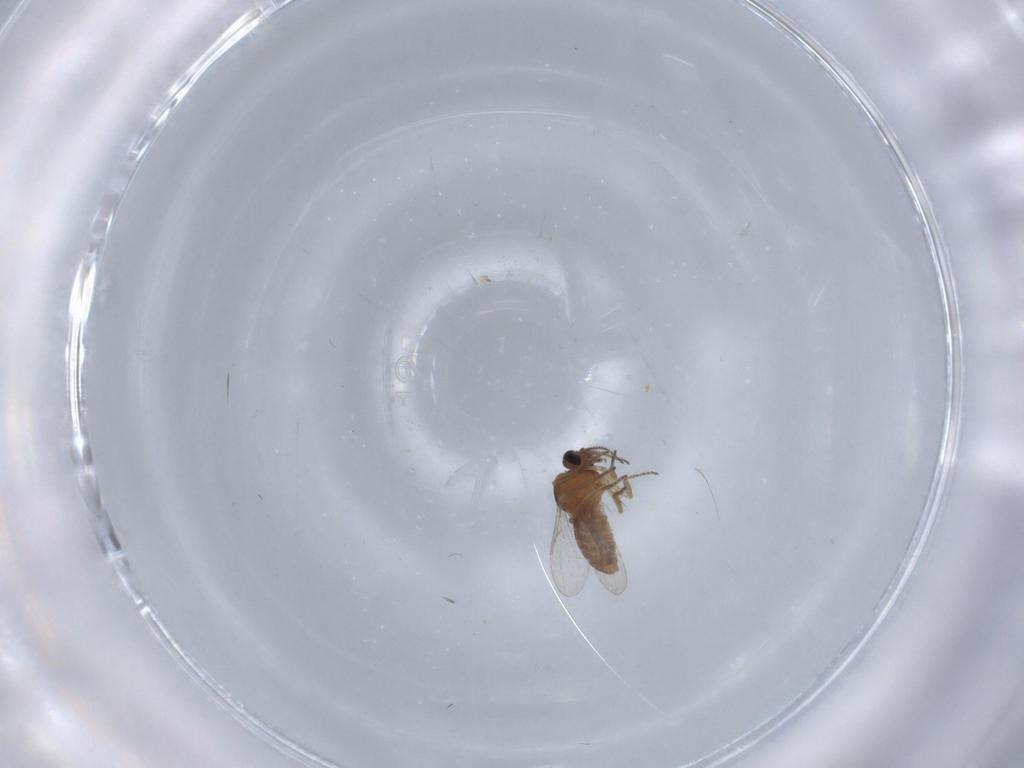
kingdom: Animalia
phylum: Arthropoda
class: Insecta
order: Diptera
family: Ceratopogonidae
